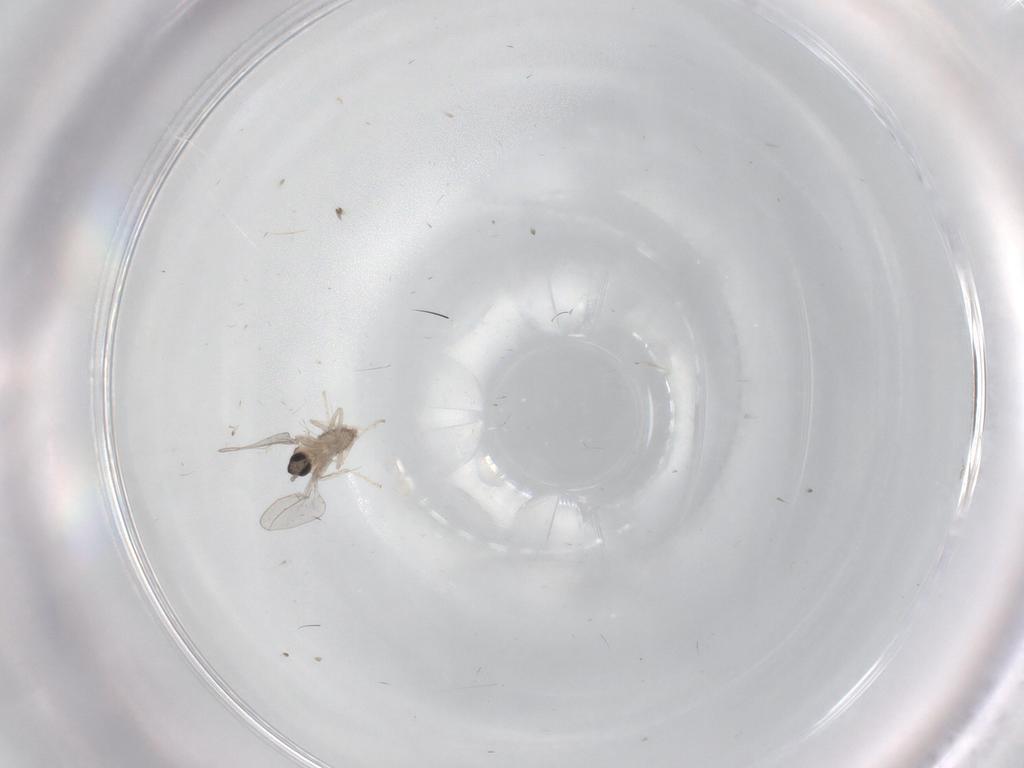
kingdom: Animalia
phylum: Arthropoda
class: Insecta
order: Diptera
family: Cecidomyiidae
